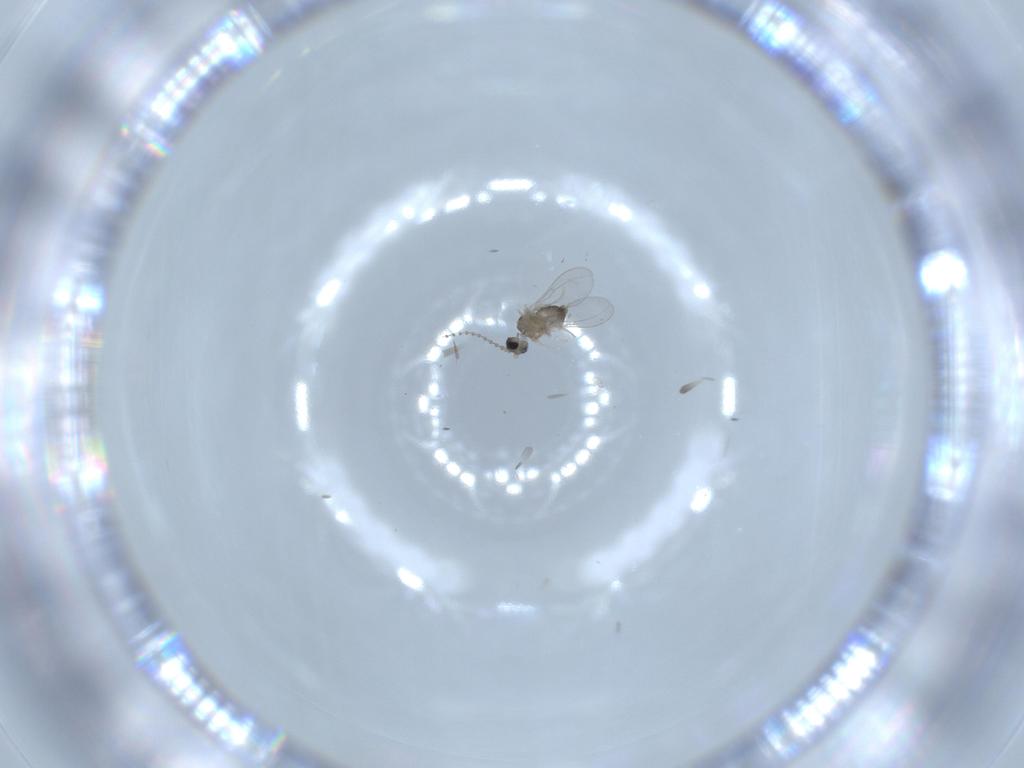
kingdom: Animalia
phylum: Arthropoda
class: Insecta
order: Diptera
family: Cecidomyiidae
